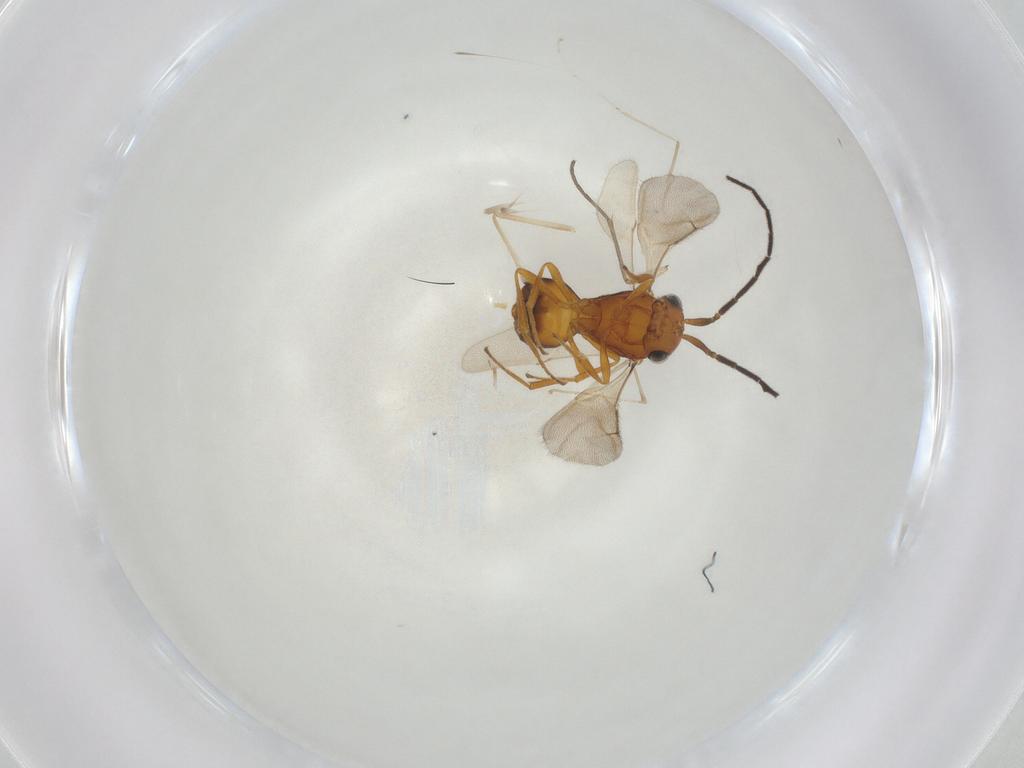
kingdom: Animalia
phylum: Arthropoda
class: Insecta
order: Hymenoptera
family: Scelionidae
